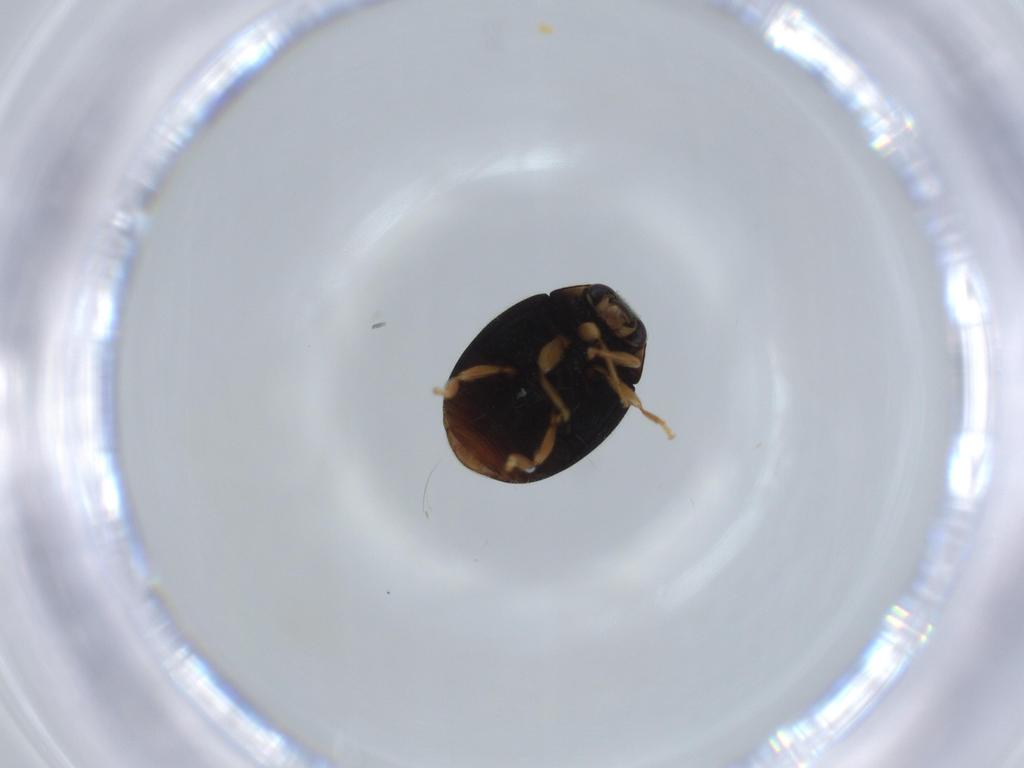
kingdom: Animalia
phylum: Arthropoda
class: Insecta
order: Coleoptera
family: Coccinellidae
